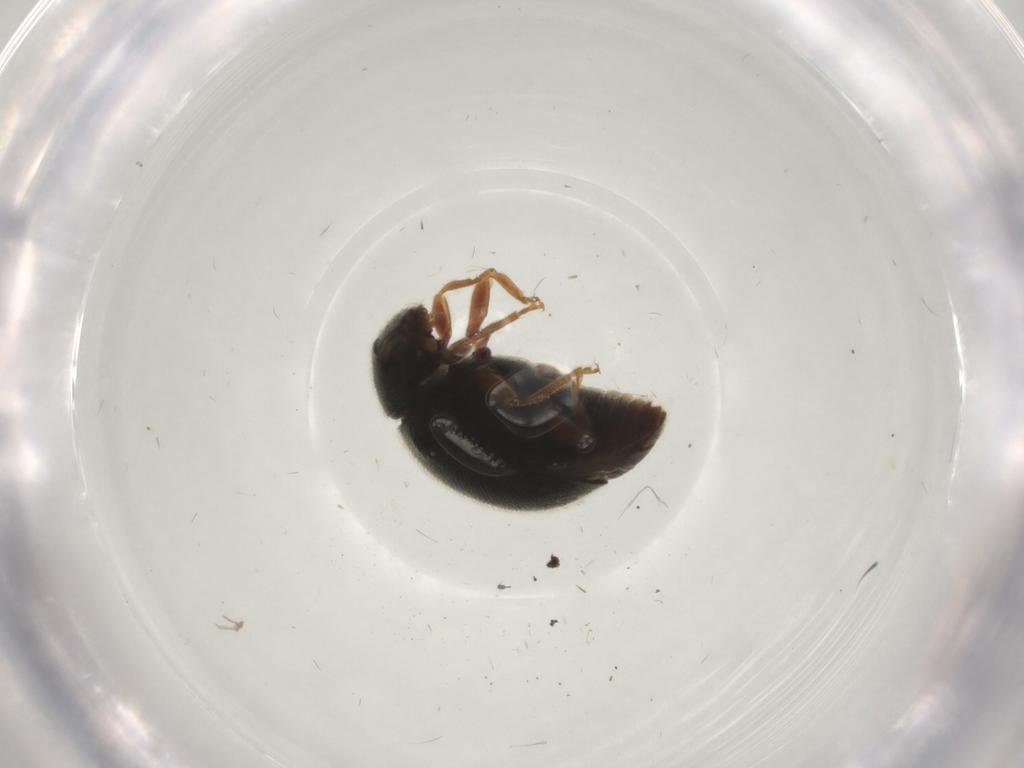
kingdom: Animalia
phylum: Arthropoda
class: Insecta
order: Coleoptera
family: Coccinellidae
